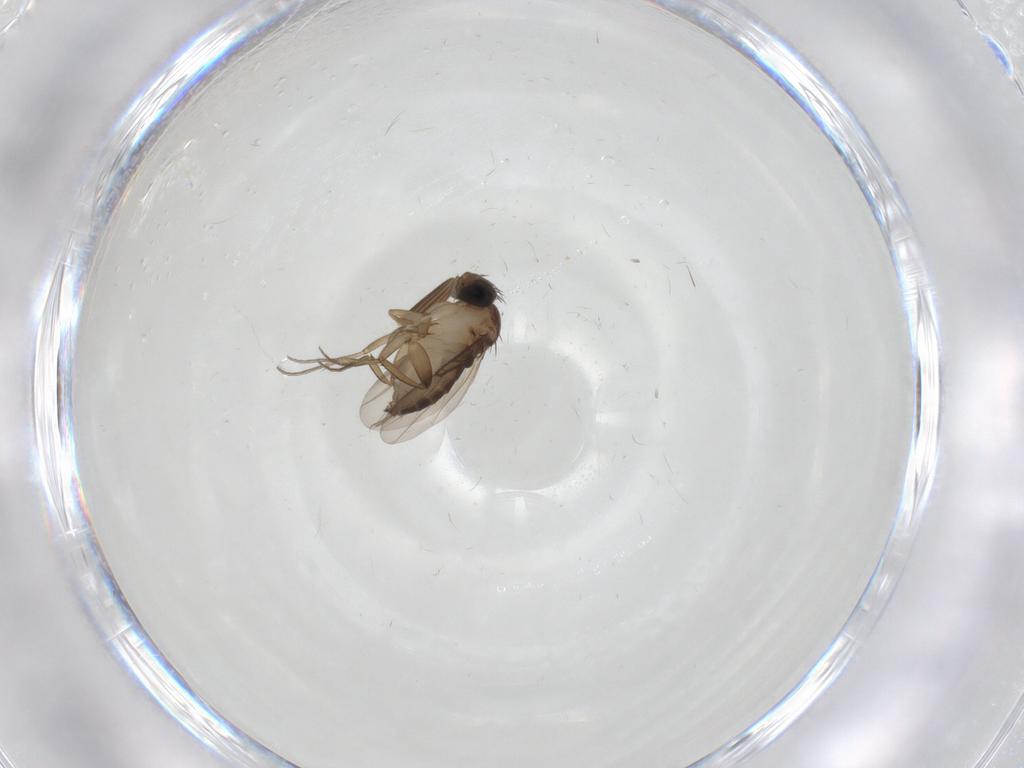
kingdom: Animalia
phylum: Arthropoda
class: Insecta
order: Diptera
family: Limoniidae
